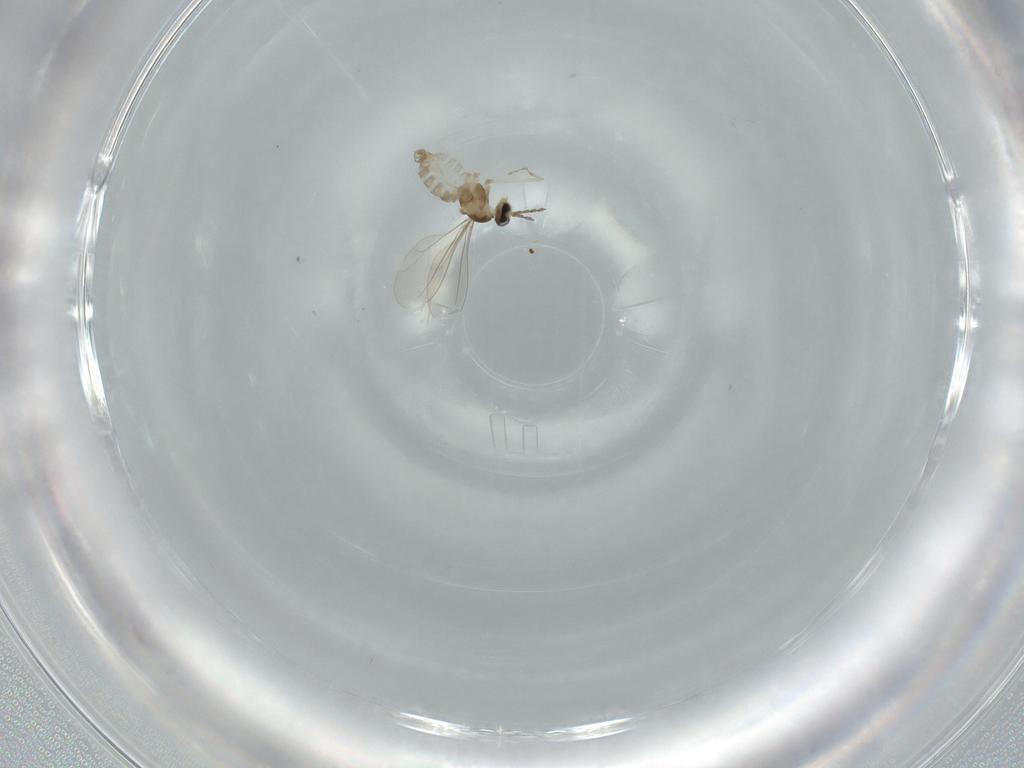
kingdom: Animalia
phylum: Arthropoda
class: Insecta
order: Diptera
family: Cecidomyiidae
